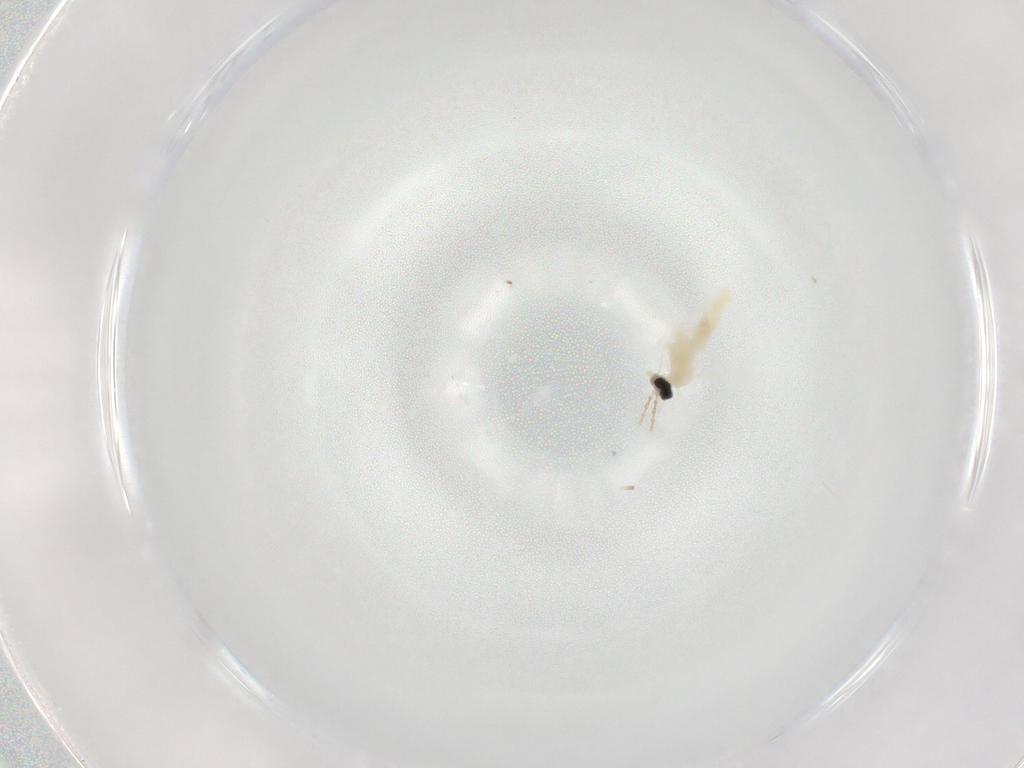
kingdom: Animalia
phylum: Arthropoda
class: Insecta
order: Diptera
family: Cecidomyiidae
